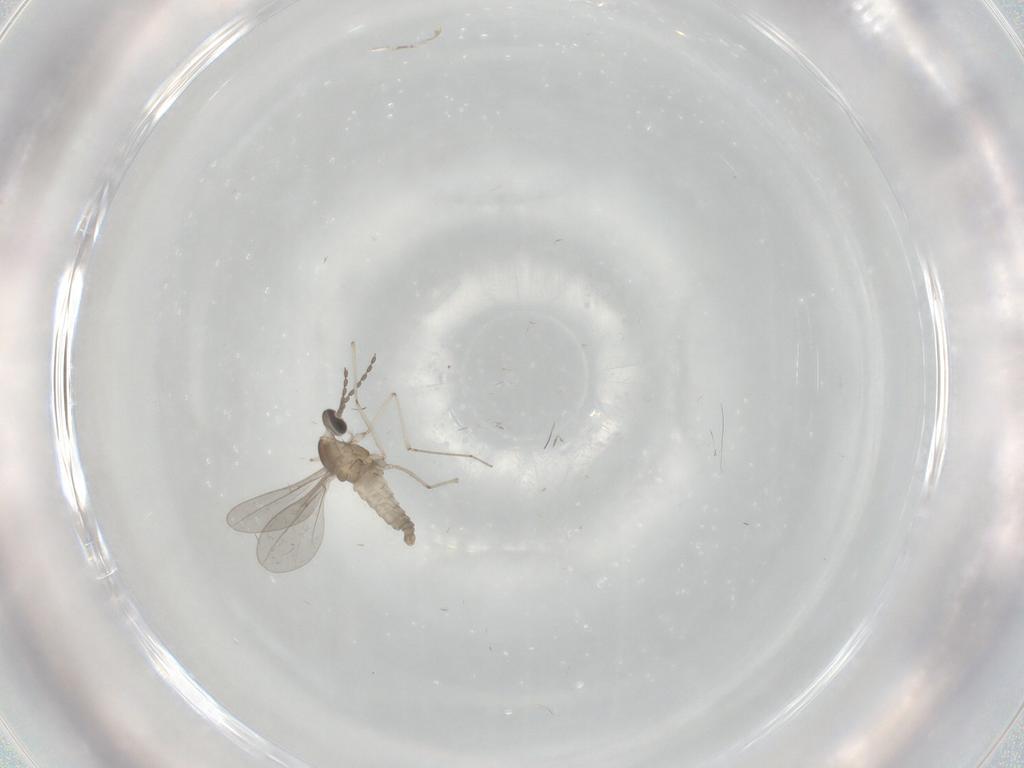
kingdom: Animalia
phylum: Arthropoda
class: Insecta
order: Diptera
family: Cecidomyiidae
